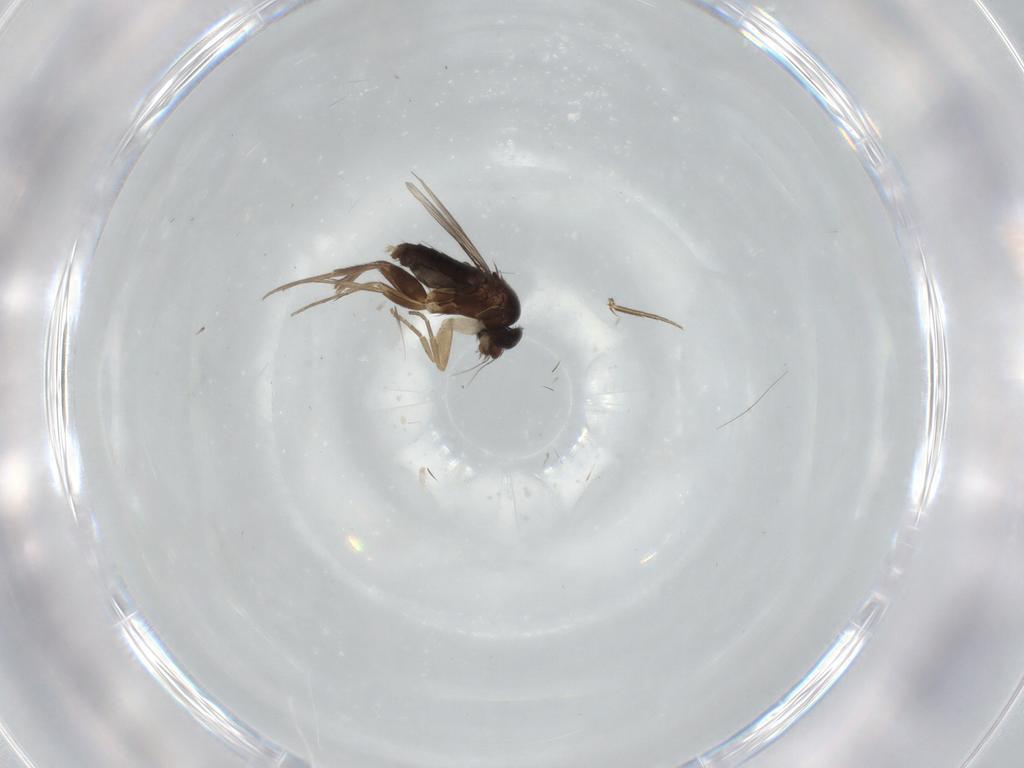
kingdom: Animalia
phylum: Arthropoda
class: Insecta
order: Diptera
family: Phoridae
